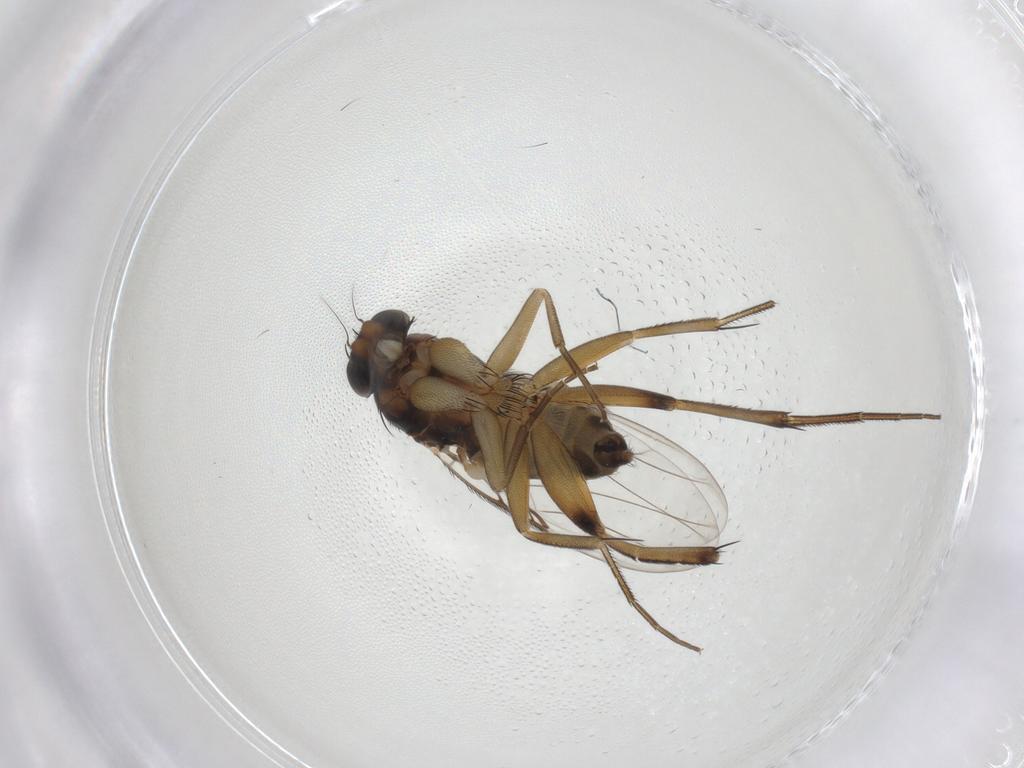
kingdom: Animalia
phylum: Arthropoda
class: Insecta
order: Diptera
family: Phoridae
